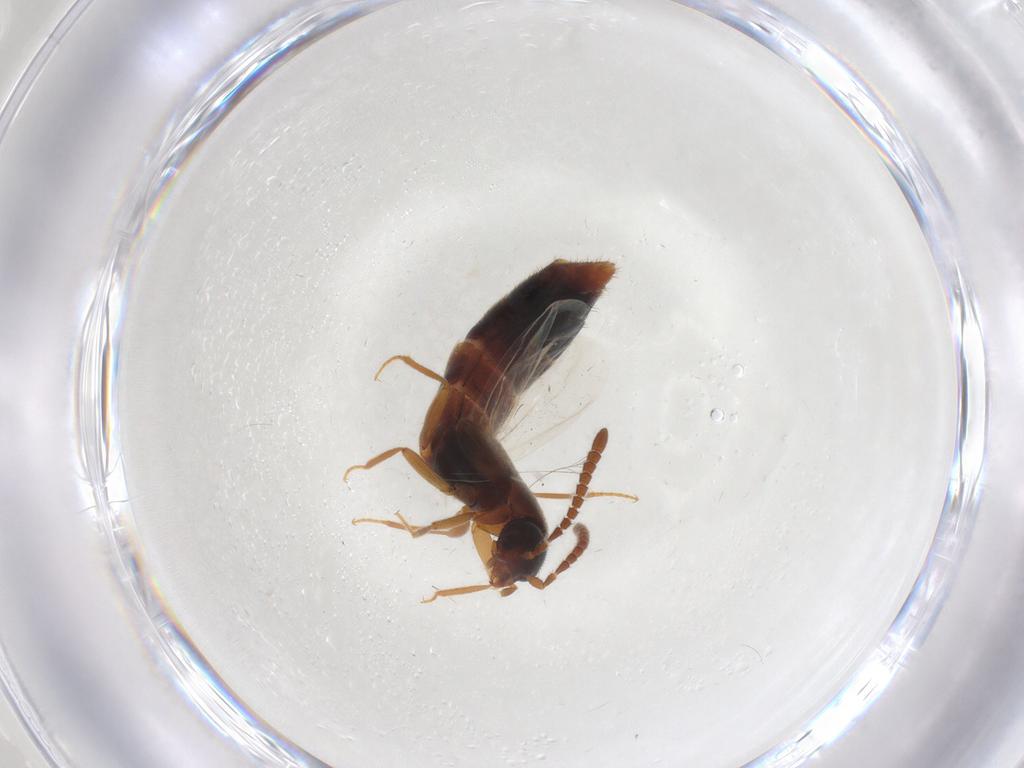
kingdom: Animalia
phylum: Arthropoda
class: Insecta
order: Coleoptera
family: Staphylinidae
